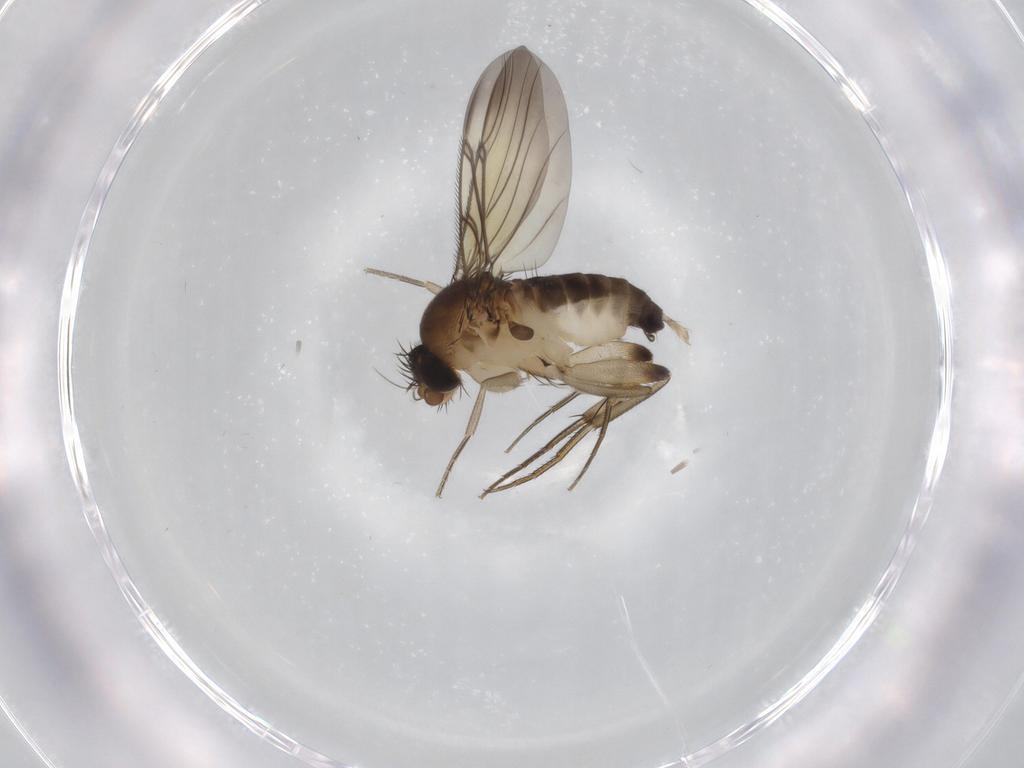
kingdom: Animalia
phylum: Arthropoda
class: Insecta
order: Diptera
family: Phoridae
